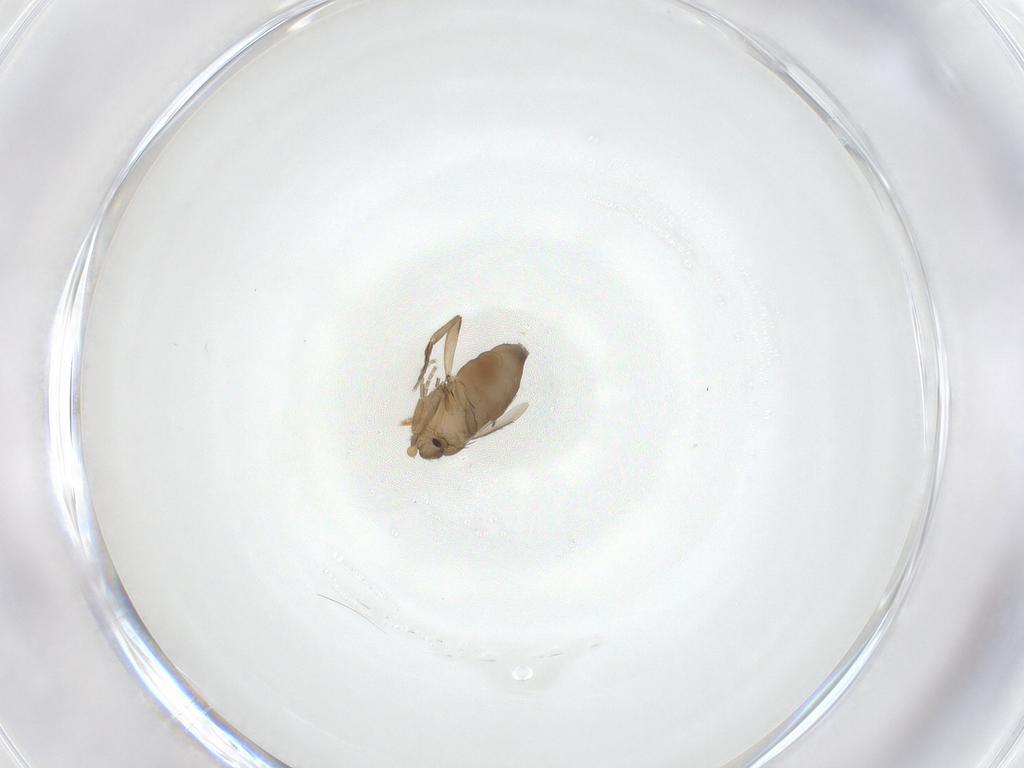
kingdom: Animalia
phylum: Arthropoda
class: Insecta
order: Diptera
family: Phoridae
